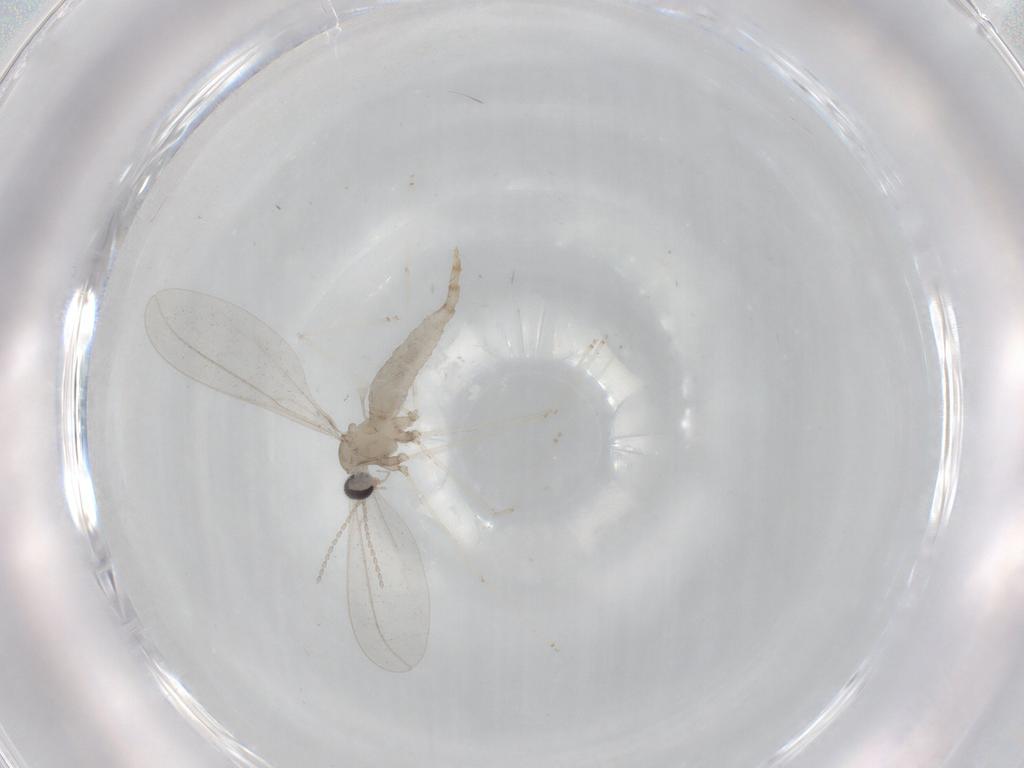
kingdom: Animalia
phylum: Arthropoda
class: Insecta
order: Diptera
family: Cecidomyiidae
